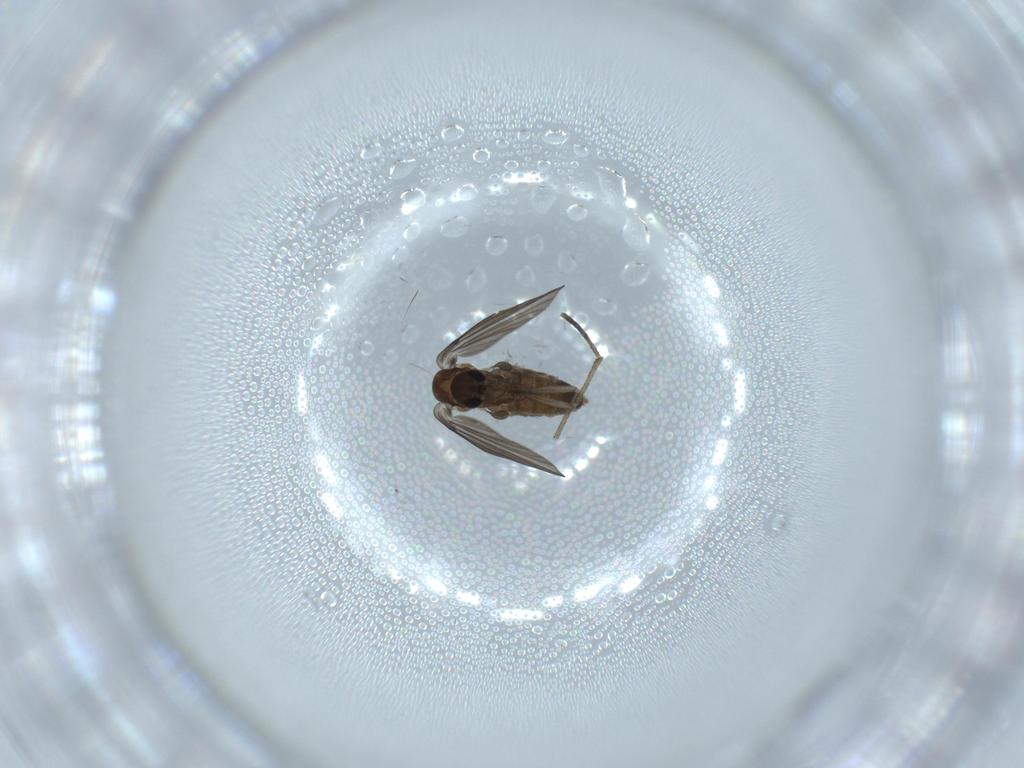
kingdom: Animalia
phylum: Arthropoda
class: Insecta
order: Diptera
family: Psychodidae
